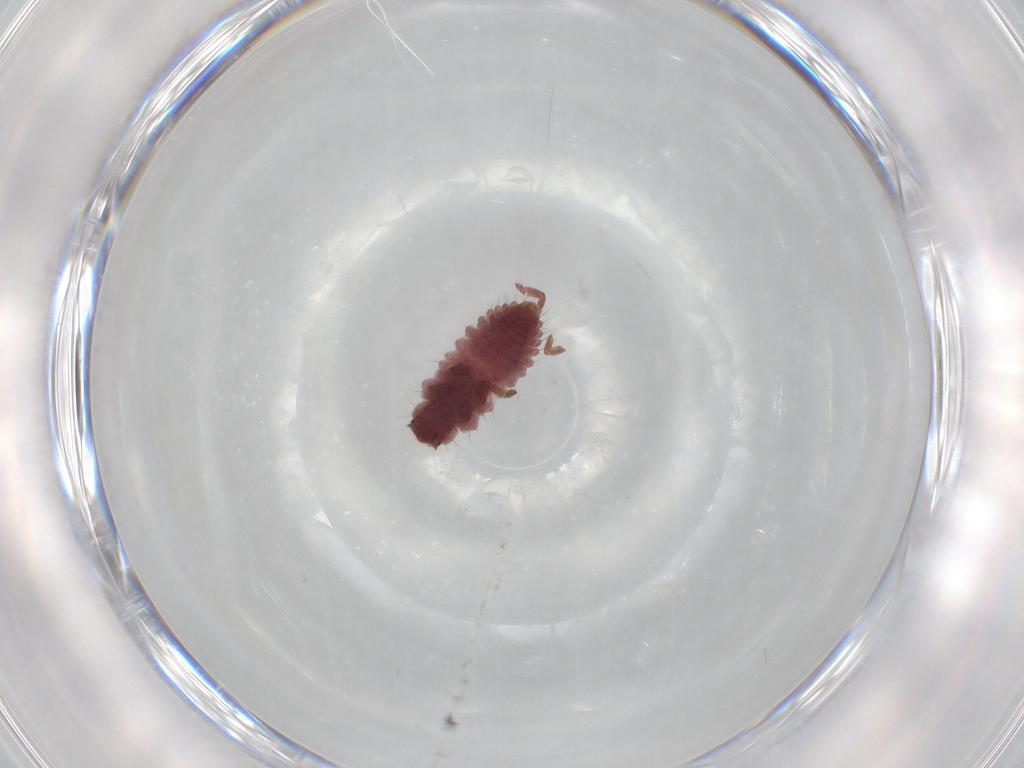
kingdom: Animalia
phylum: Arthropoda
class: Insecta
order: Coleoptera
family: Coccinellidae
